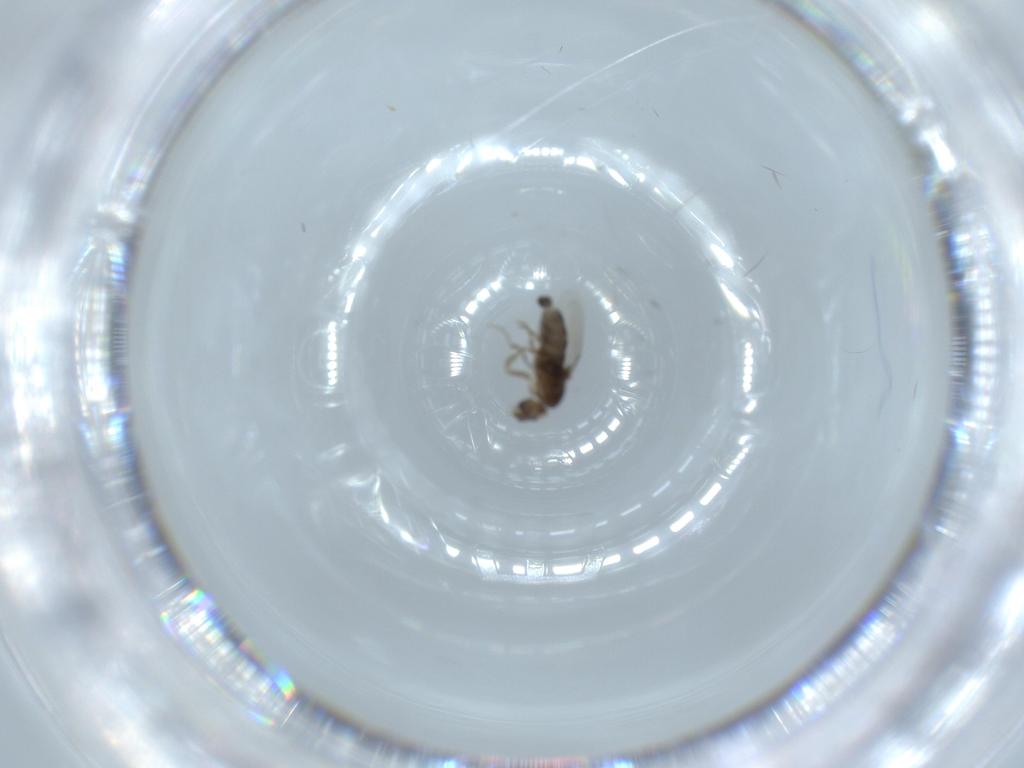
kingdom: Animalia
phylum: Arthropoda
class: Insecta
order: Diptera
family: Phoridae
